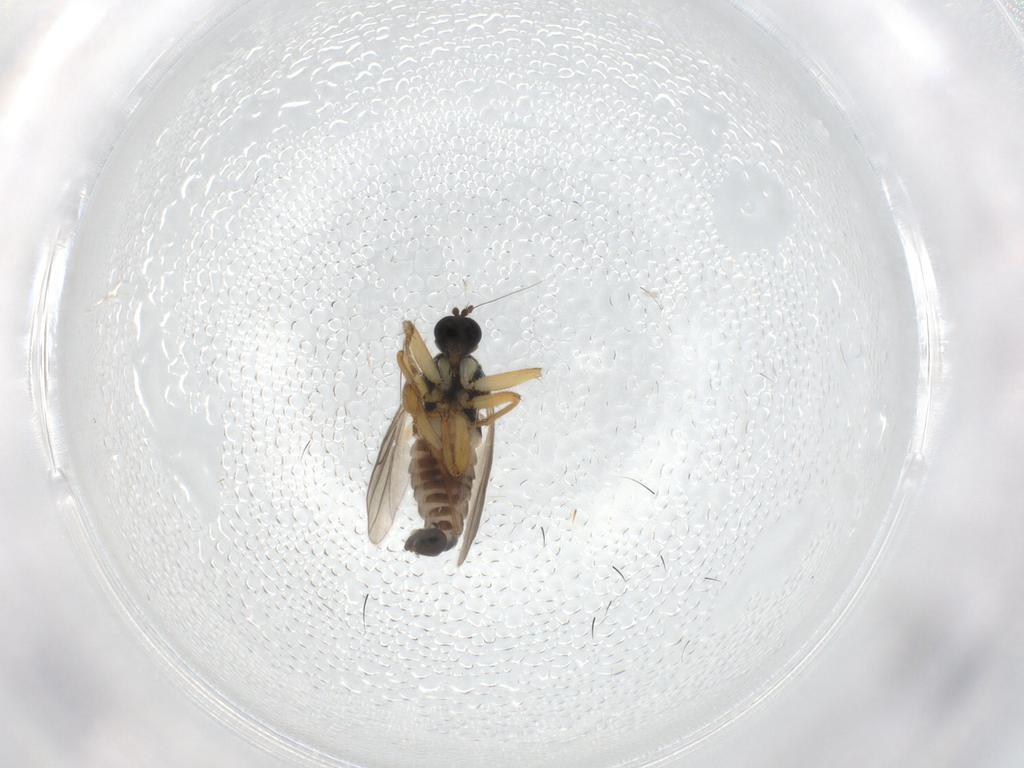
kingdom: Animalia
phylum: Arthropoda
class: Insecta
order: Diptera
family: Hybotidae
